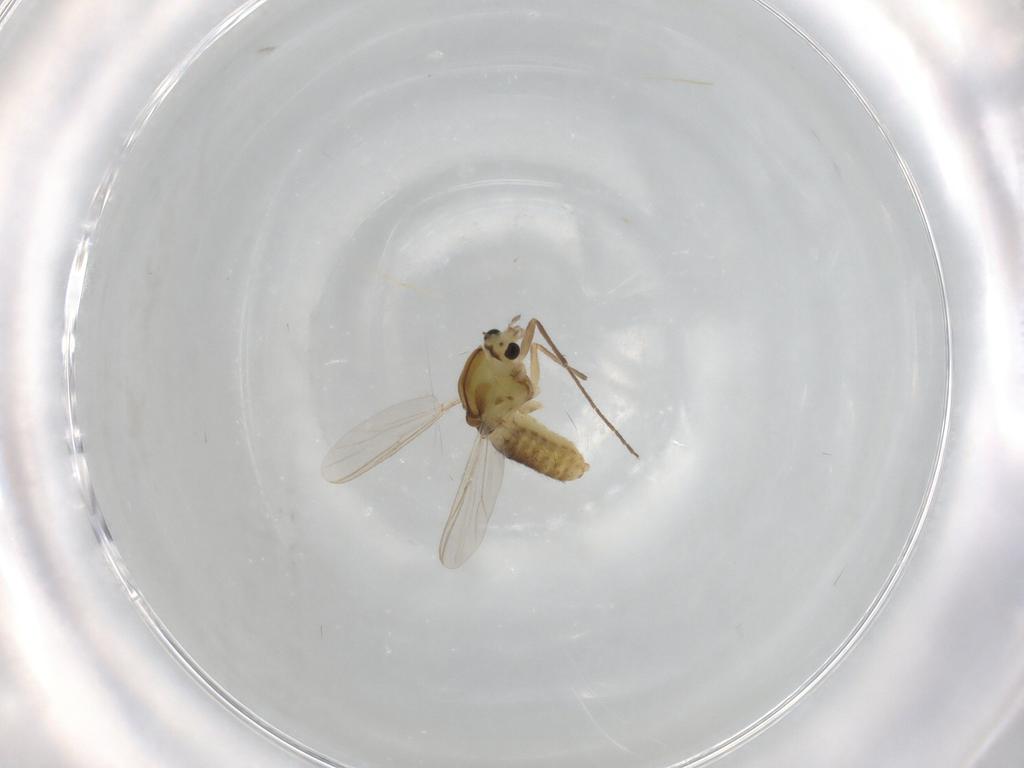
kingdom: Animalia
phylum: Arthropoda
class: Insecta
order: Diptera
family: Chironomidae
